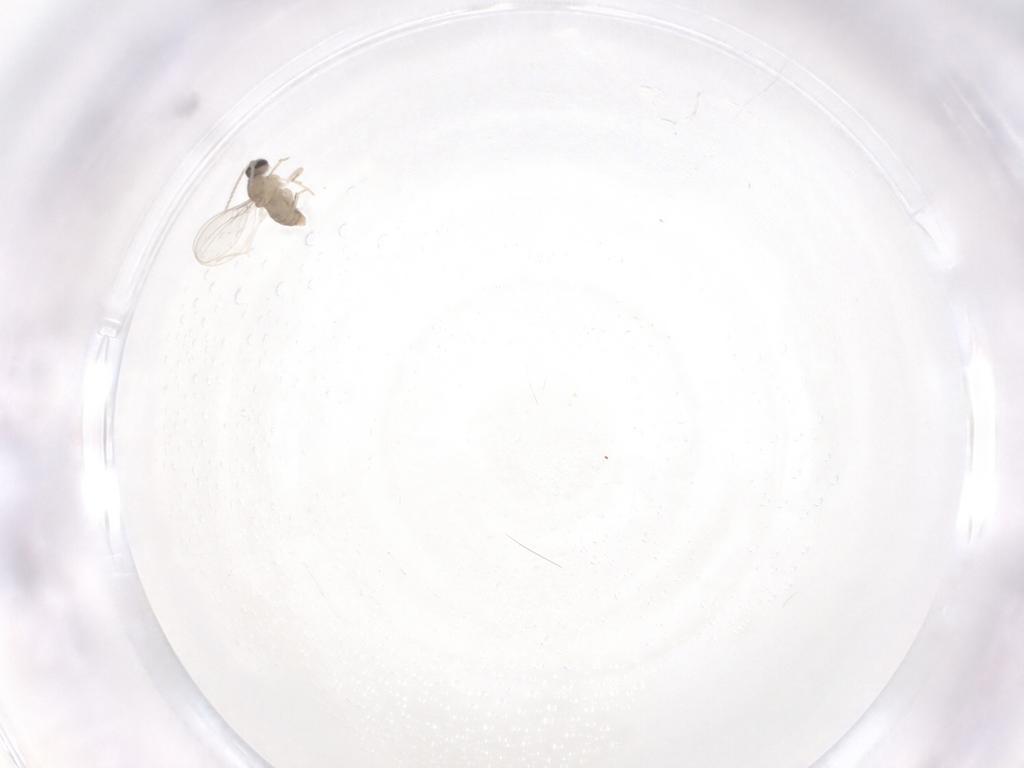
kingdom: Animalia
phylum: Arthropoda
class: Insecta
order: Diptera
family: Cecidomyiidae
